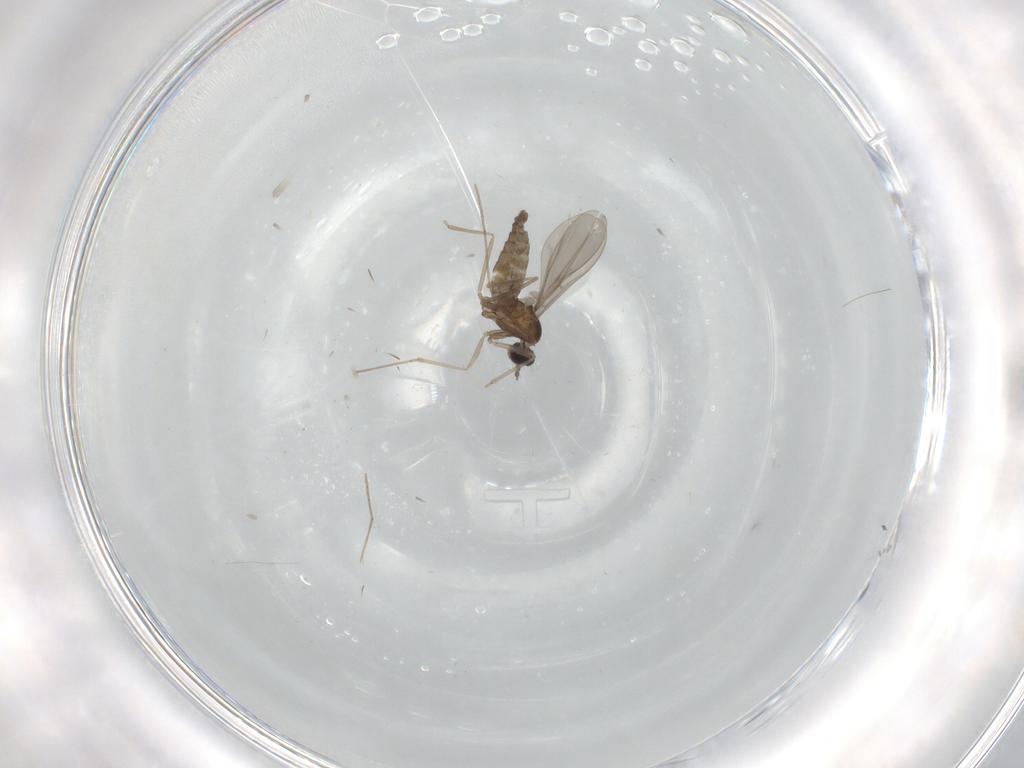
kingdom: Animalia
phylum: Arthropoda
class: Insecta
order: Diptera
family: Cecidomyiidae
